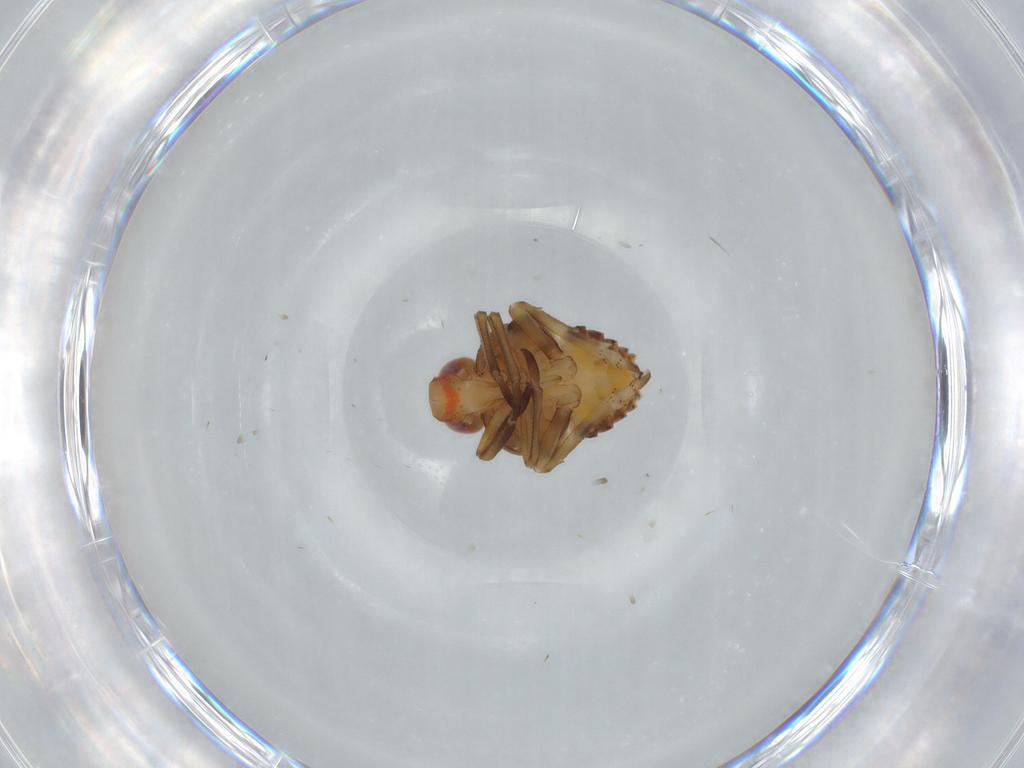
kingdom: Animalia
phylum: Arthropoda
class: Insecta
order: Hemiptera
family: Fulgoroidea_incertae_sedis
